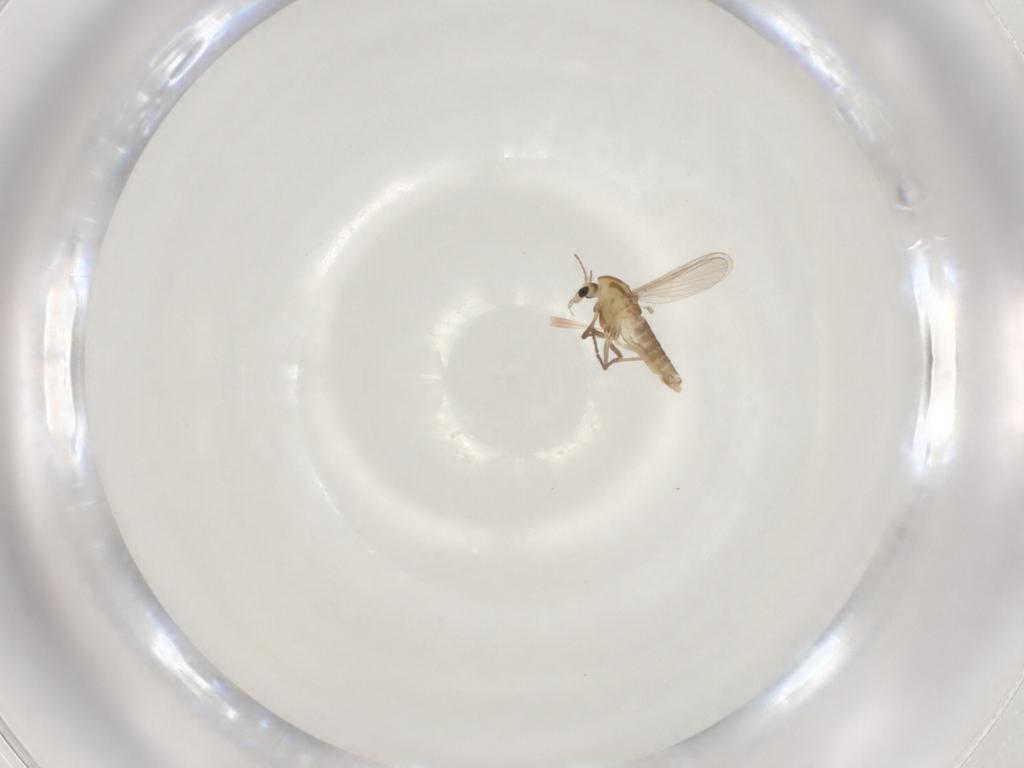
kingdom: Animalia
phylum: Arthropoda
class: Insecta
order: Diptera
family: Chironomidae
